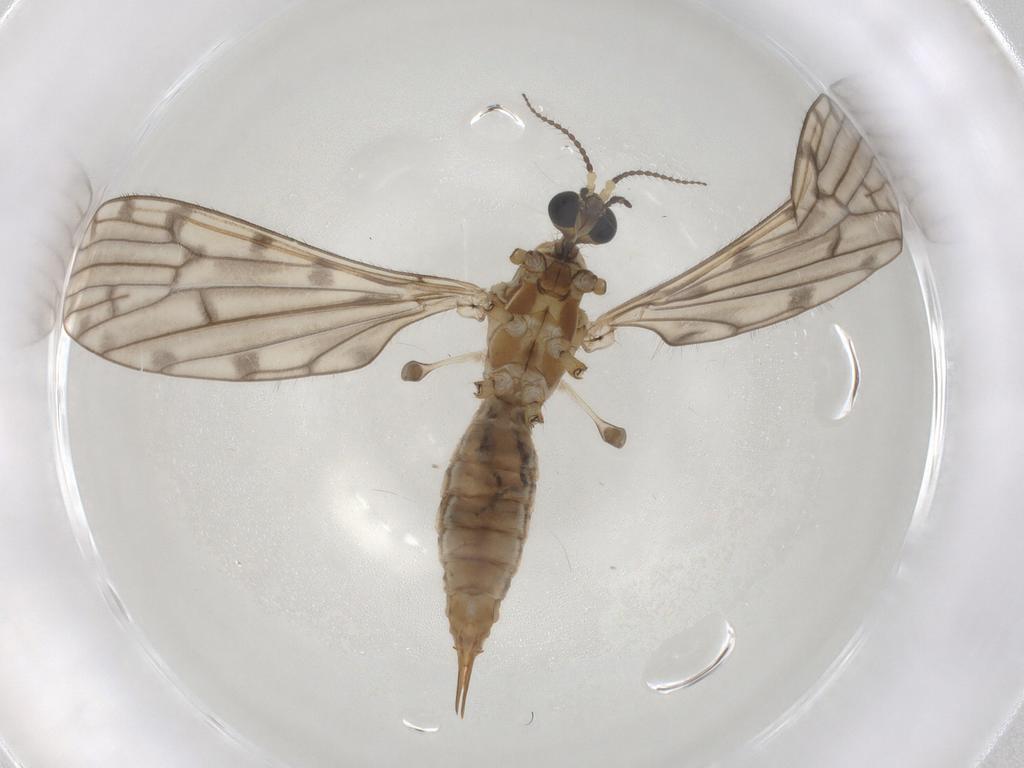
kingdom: Animalia
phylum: Arthropoda
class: Insecta
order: Diptera
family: Limoniidae
